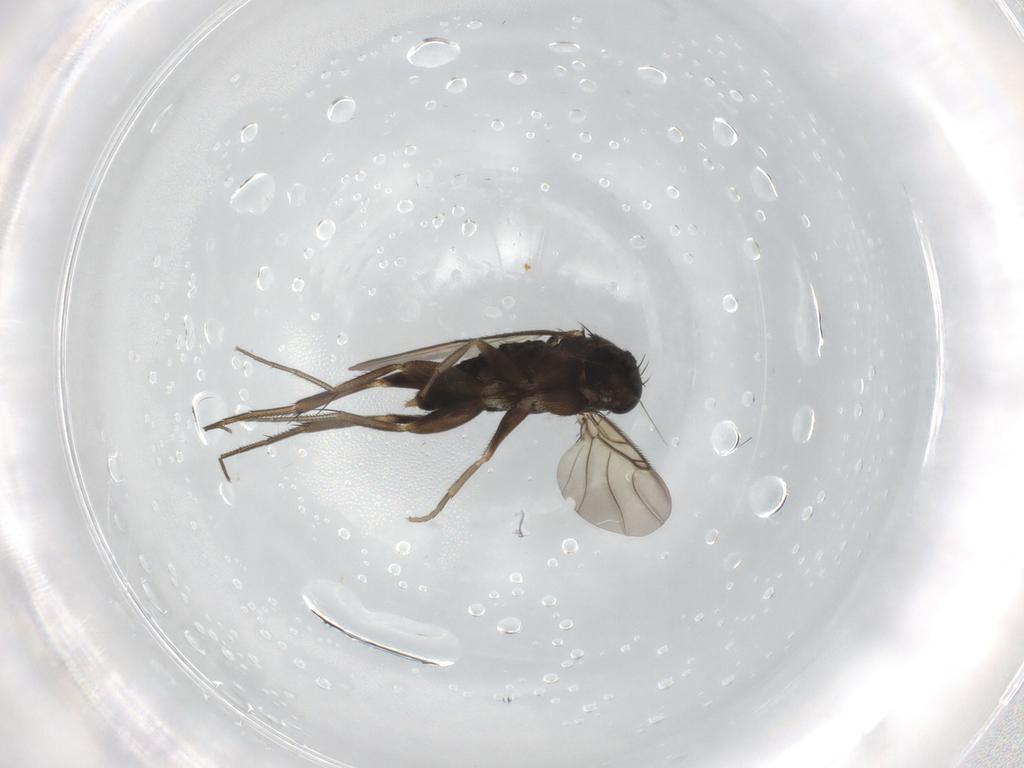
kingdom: Animalia
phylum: Arthropoda
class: Insecta
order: Diptera
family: Phoridae
